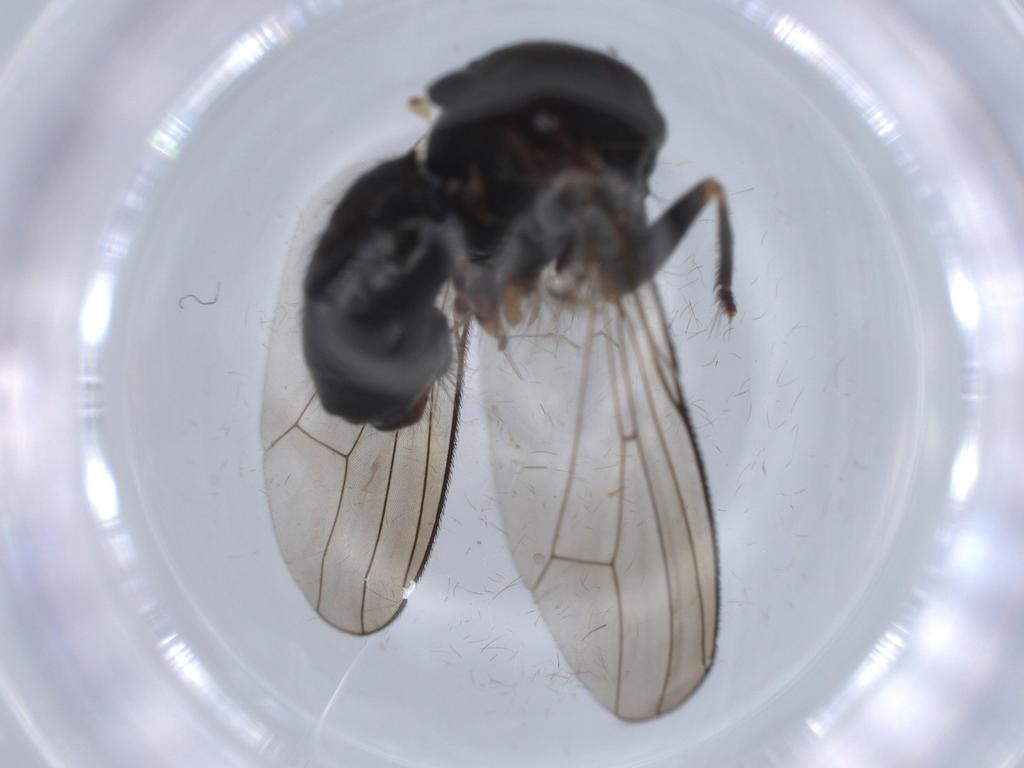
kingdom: Animalia
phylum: Arthropoda
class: Insecta
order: Diptera
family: Muscidae
